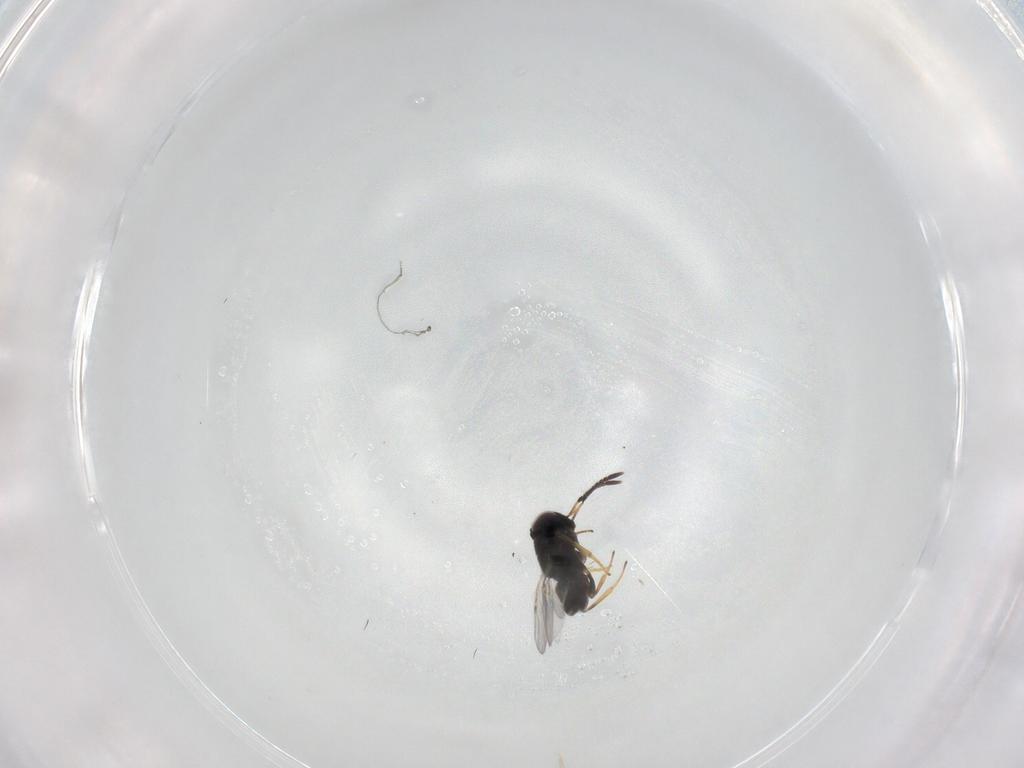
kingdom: Animalia
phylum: Arthropoda
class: Insecta
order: Hymenoptera
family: Encyrtidae
